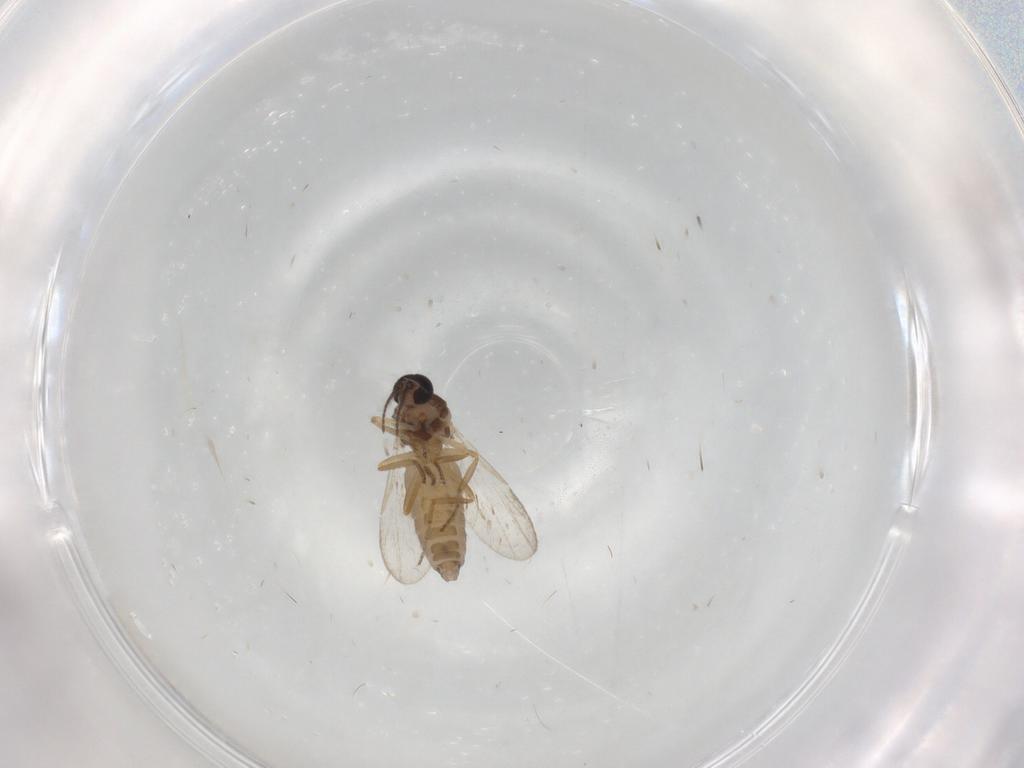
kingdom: Animalia
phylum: Arthropoda
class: Insecta
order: Diptera
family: Ceratopogonidae
